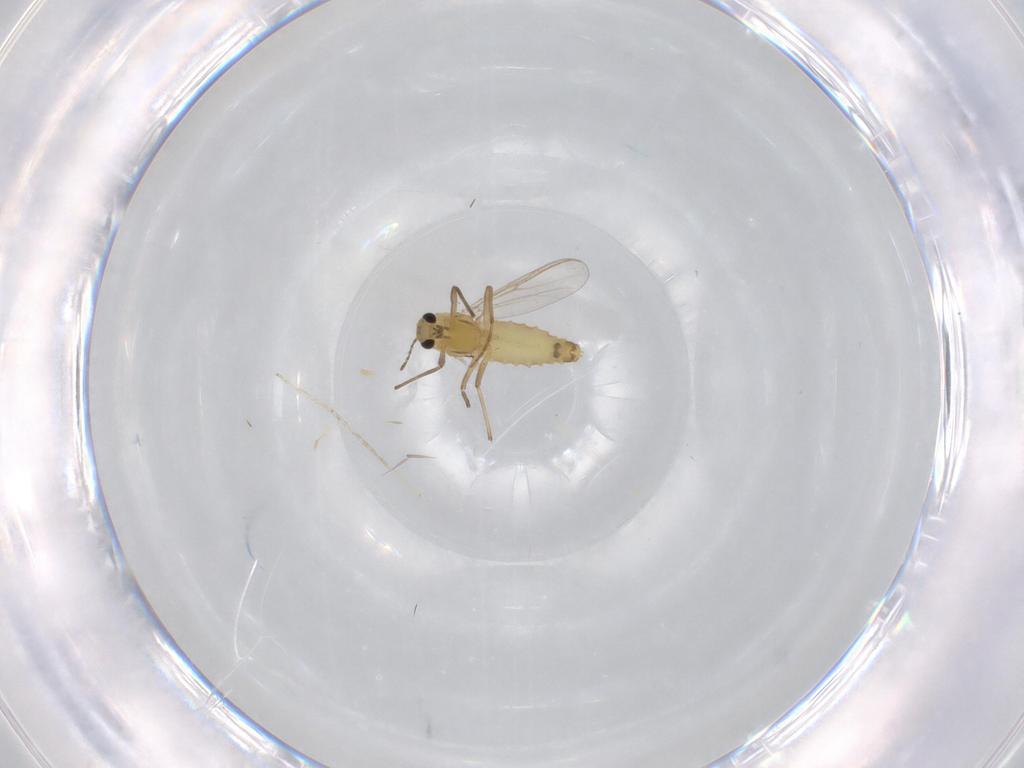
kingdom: Animalia
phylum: Arthropoda
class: Insecta
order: Diptera
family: Chironomidae
